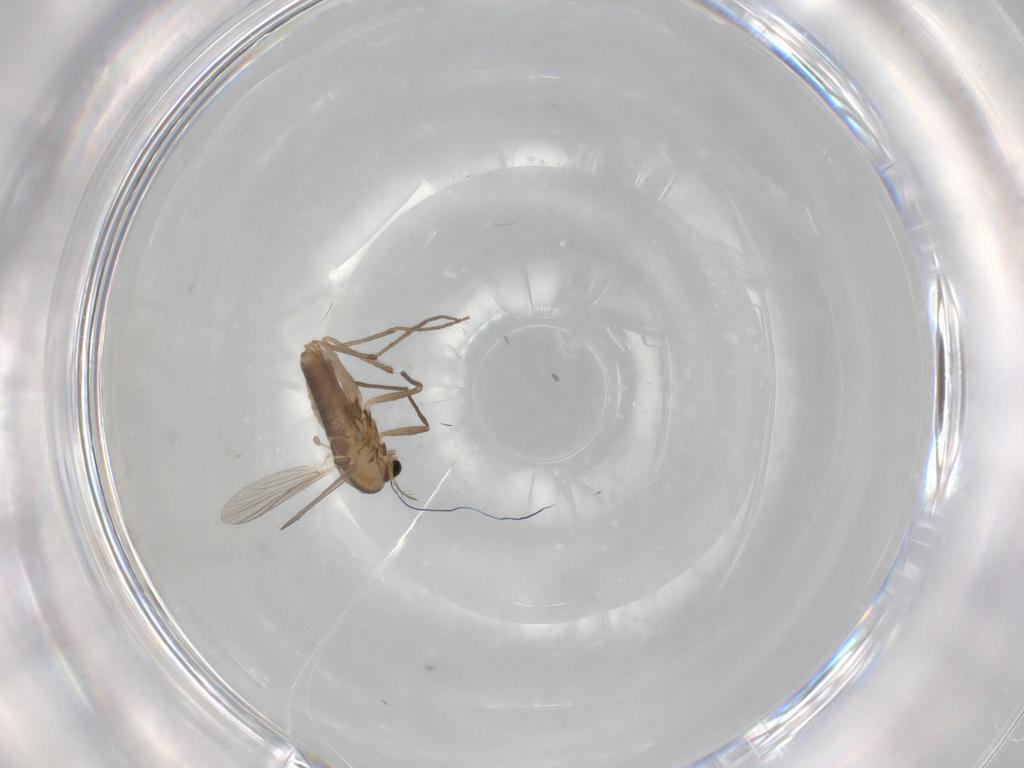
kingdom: Animalia
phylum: Arthropoda
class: Insecta
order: Diptera
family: Chironomidae
